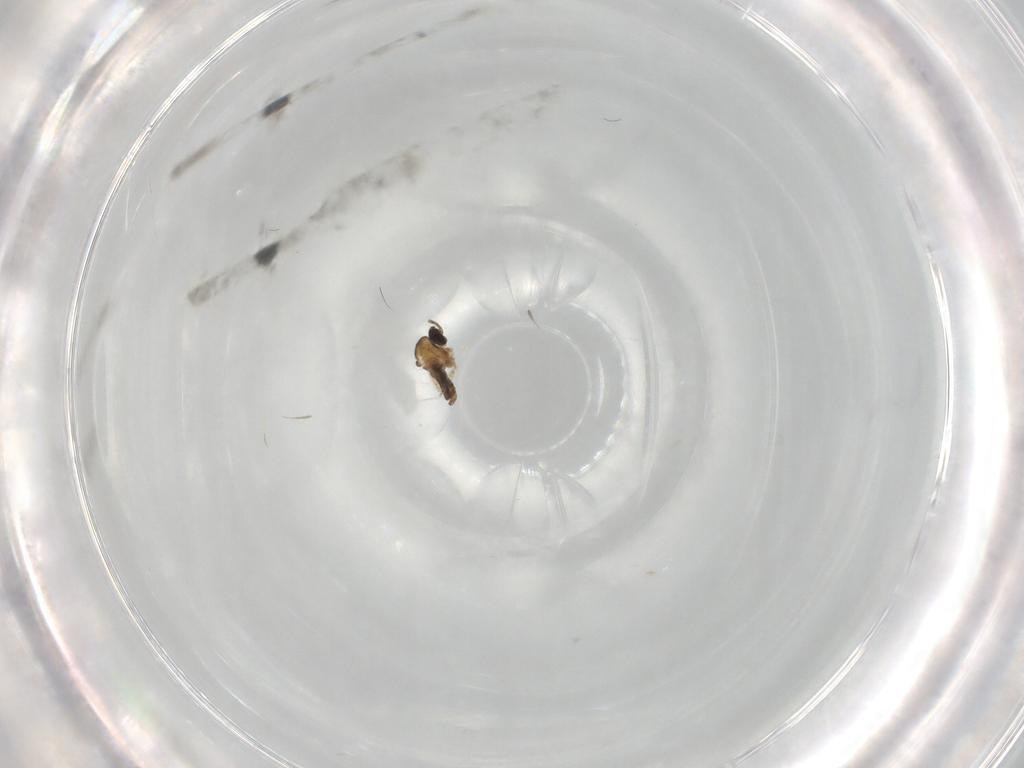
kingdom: Animalia
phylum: Arthropoda
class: Insecta
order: Diptera
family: Cecidomyiidae
